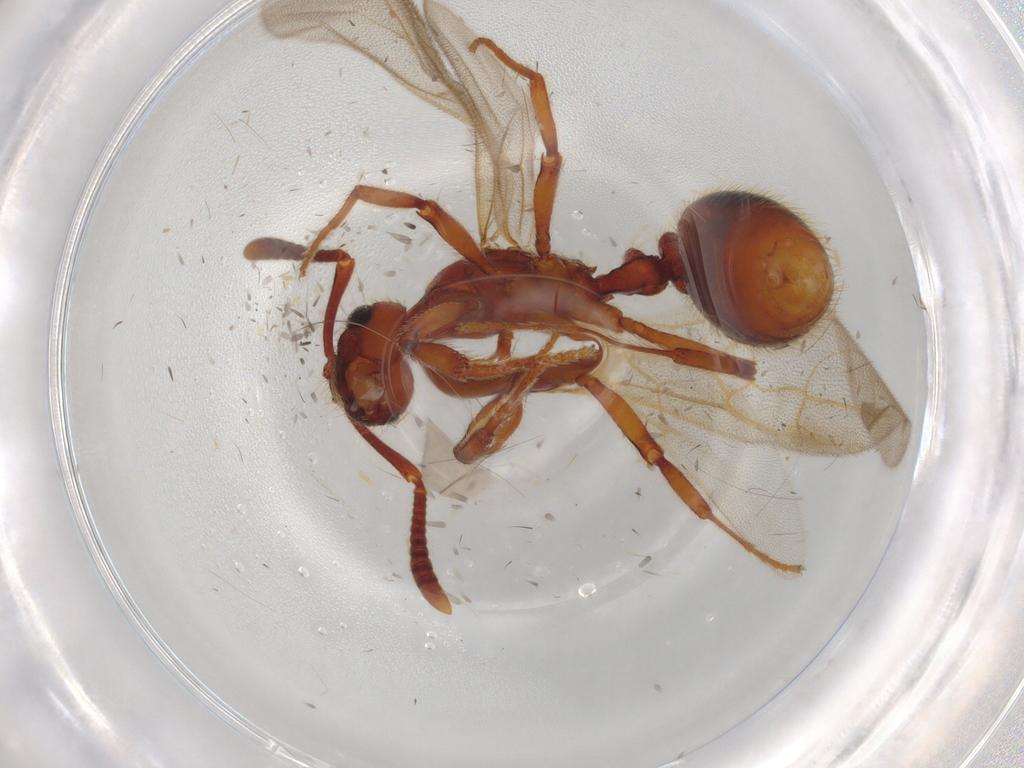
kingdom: Animalia
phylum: Arthropoda
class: Insecta
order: Hymenoptera
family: Formicidae
